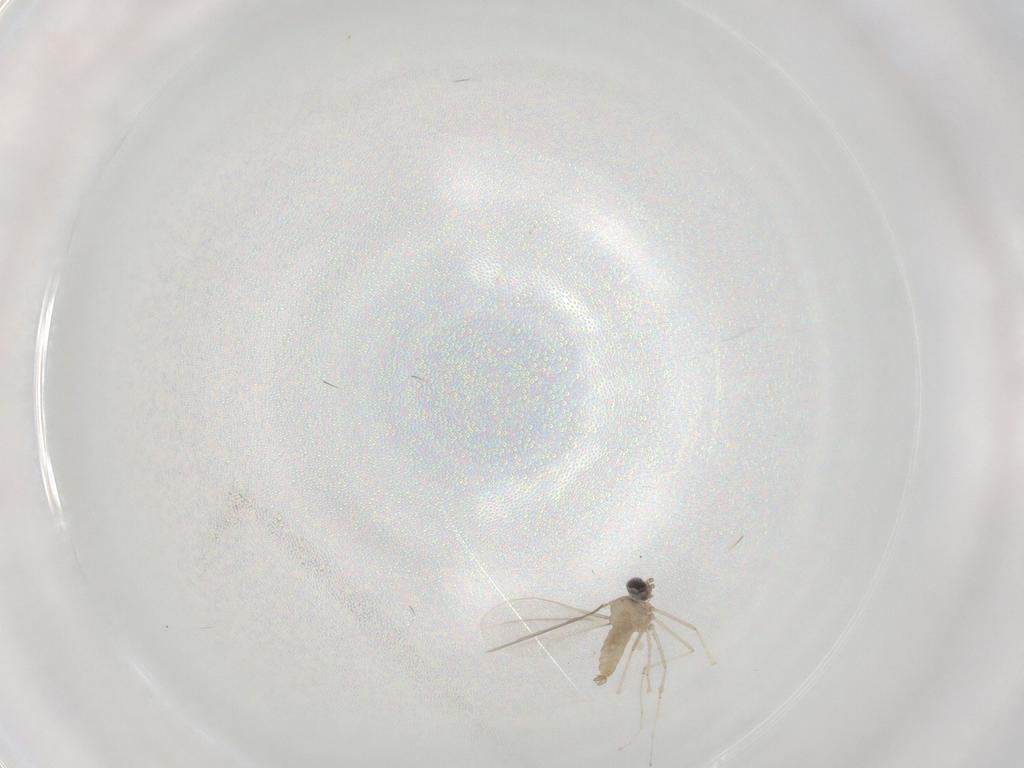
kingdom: Animalia
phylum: Arthropoda
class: Insecta
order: Diptera
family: Cecidomyiidae
